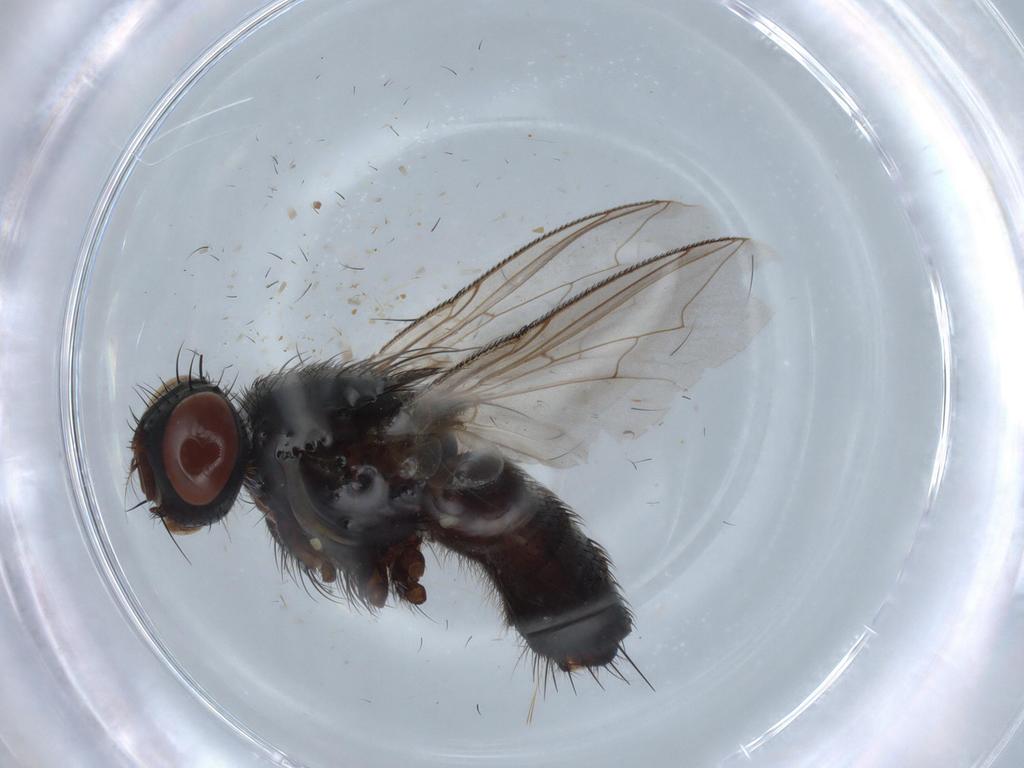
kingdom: Animalia
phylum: Arthropoda
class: Insecta
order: Diptera
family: Sarcophagidae
